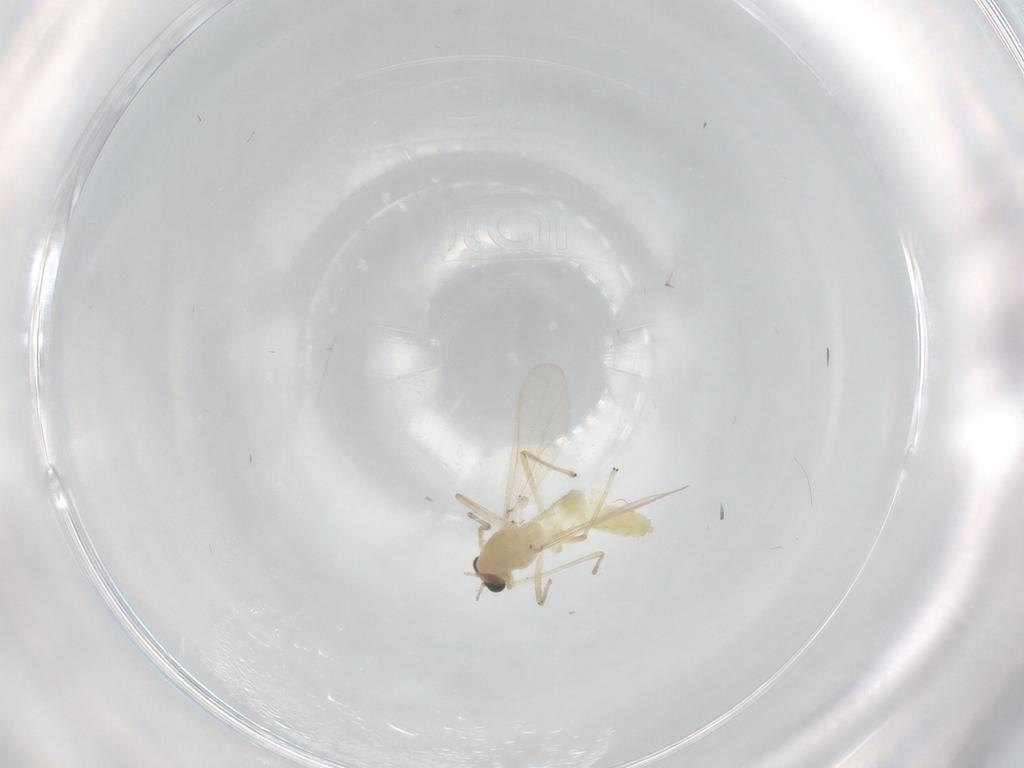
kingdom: Animalia
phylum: Arthropoda
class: Insecta
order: Diptera
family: Chironomidae
